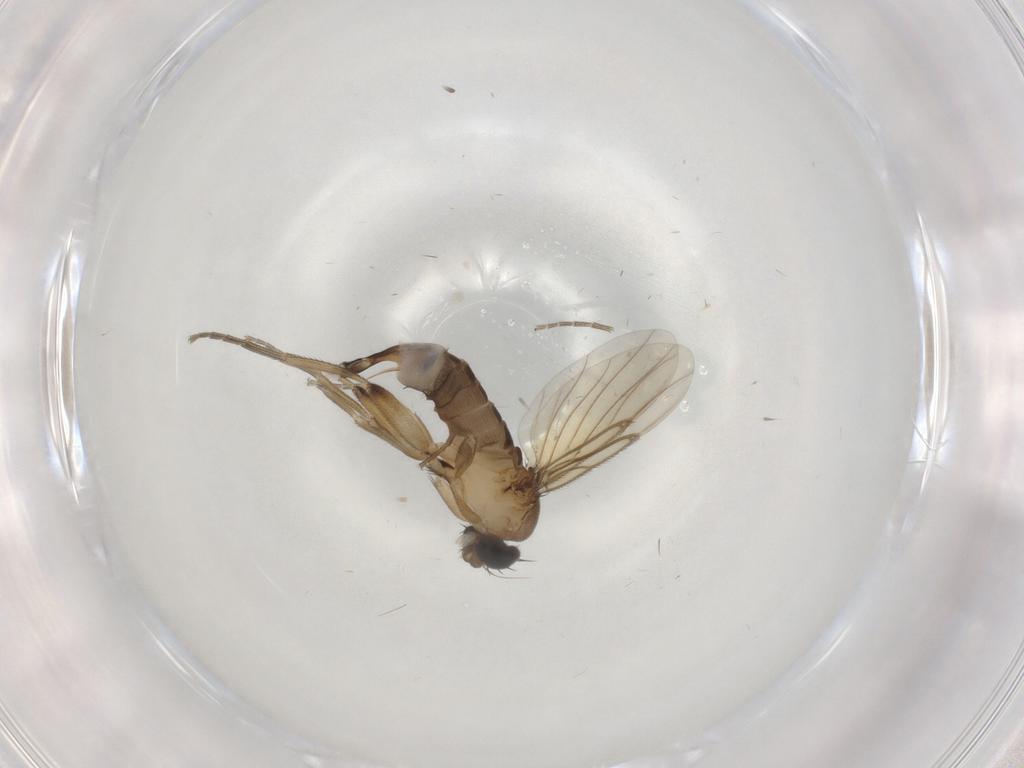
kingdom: Animalia
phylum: Arthropoda
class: Insecta
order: Diptera
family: Phoridae
